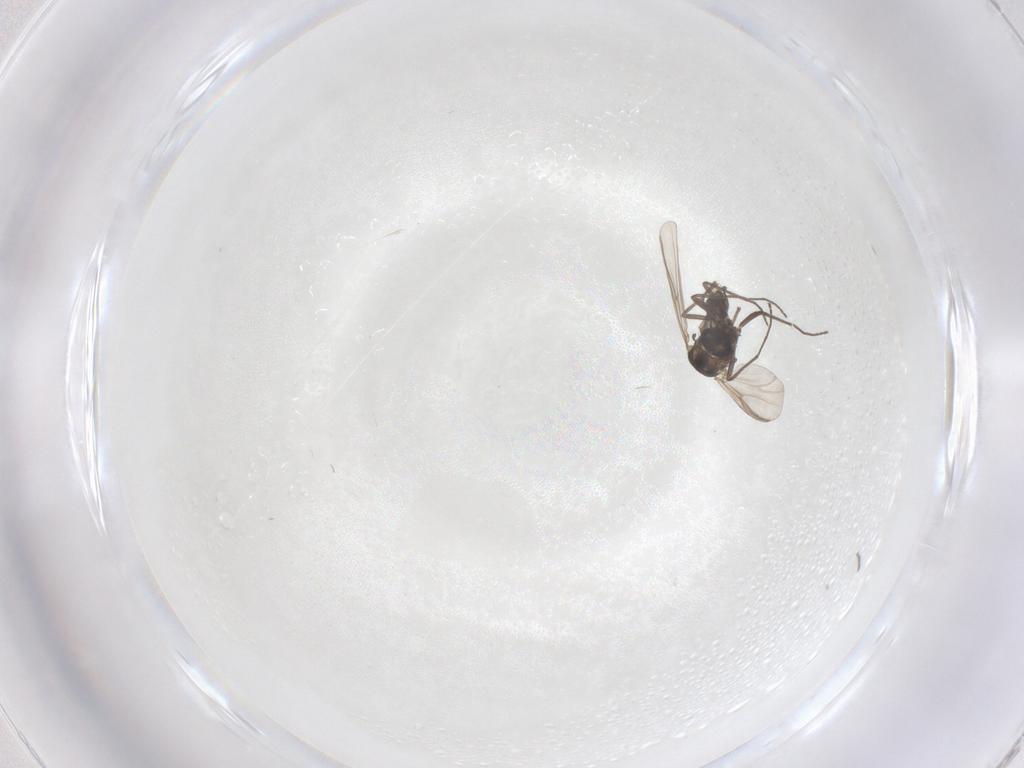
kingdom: Animalia
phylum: Arthropoda
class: Insecta
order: Diptera
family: Chironomidae
